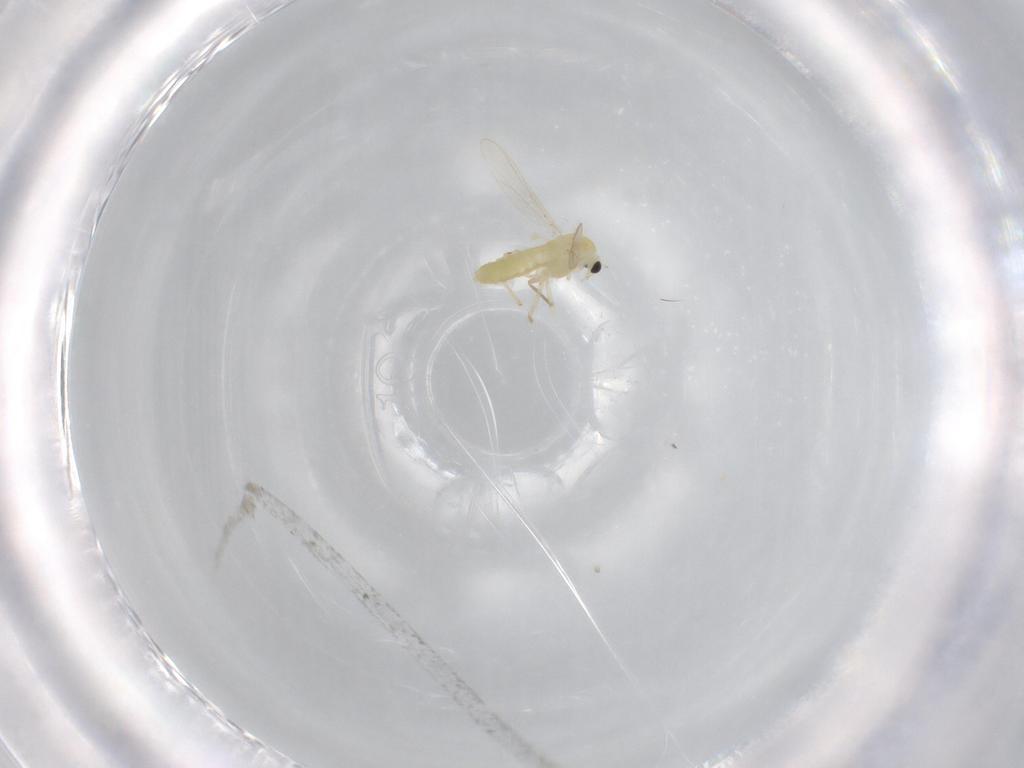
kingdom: Animalia
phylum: Arthropoda
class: Insecta
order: Diptera
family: Chironomidae
